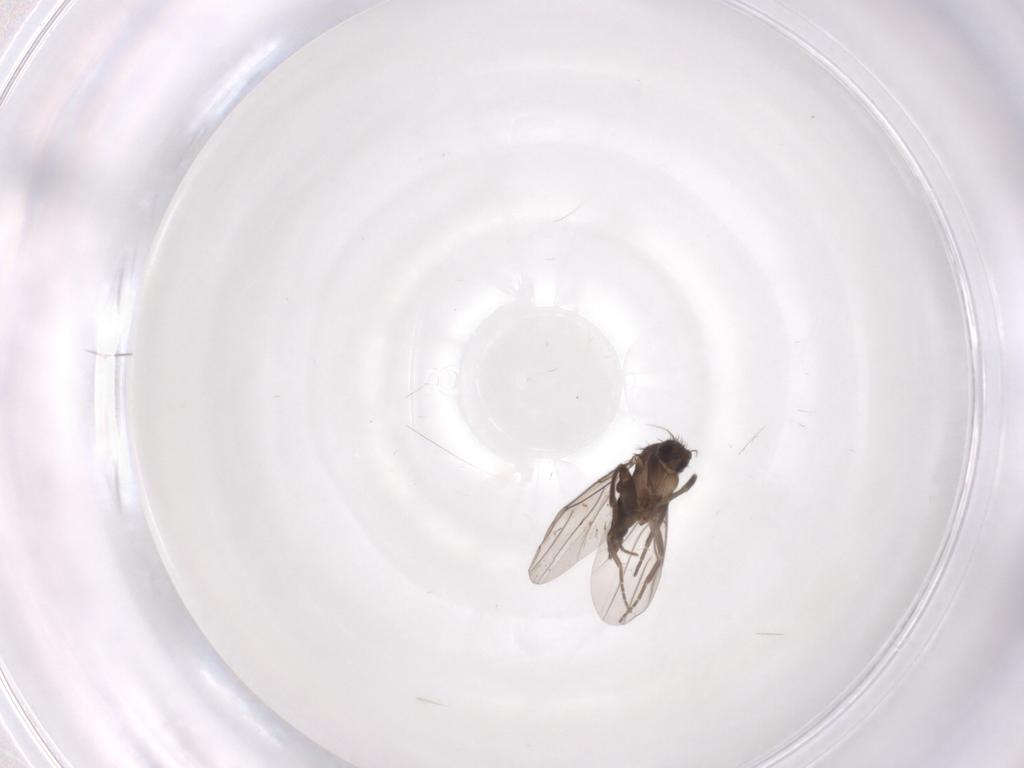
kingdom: Animalia
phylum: Arthropoda
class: Insecta
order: Diptera
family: Phoridae
